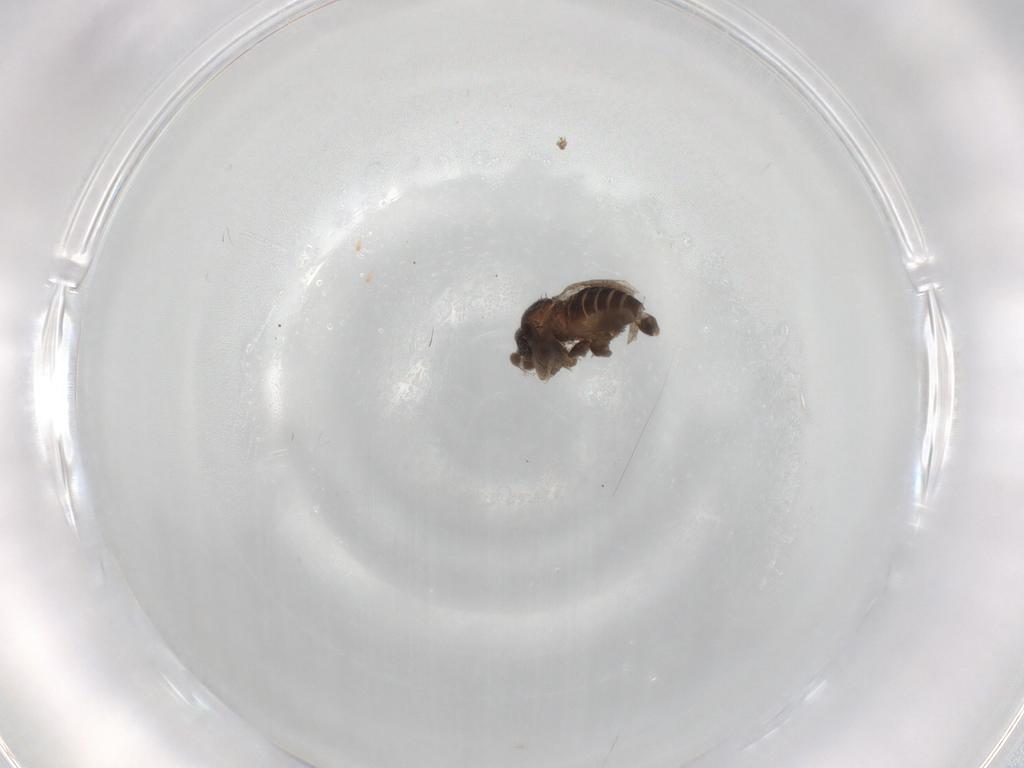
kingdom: Animalia
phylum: Arthropoda
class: Insecta
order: Diptera
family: Phoridae
